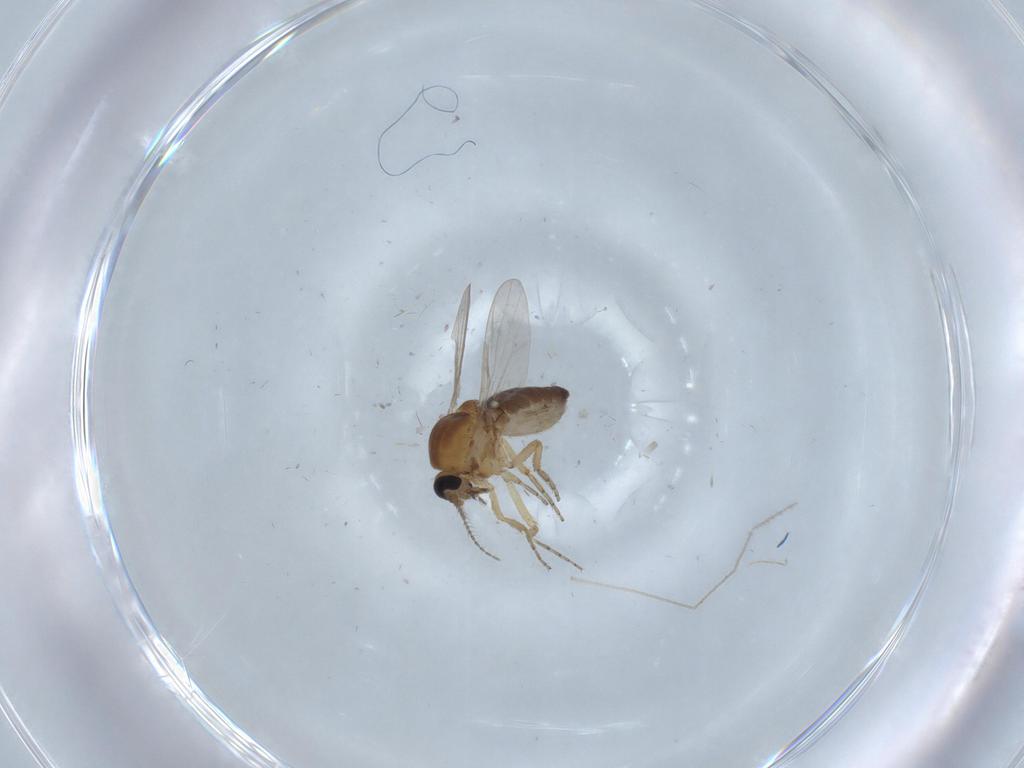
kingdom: Animalia
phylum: Arthropoda
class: Insecta
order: Diptera
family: Ceratopogonidae
